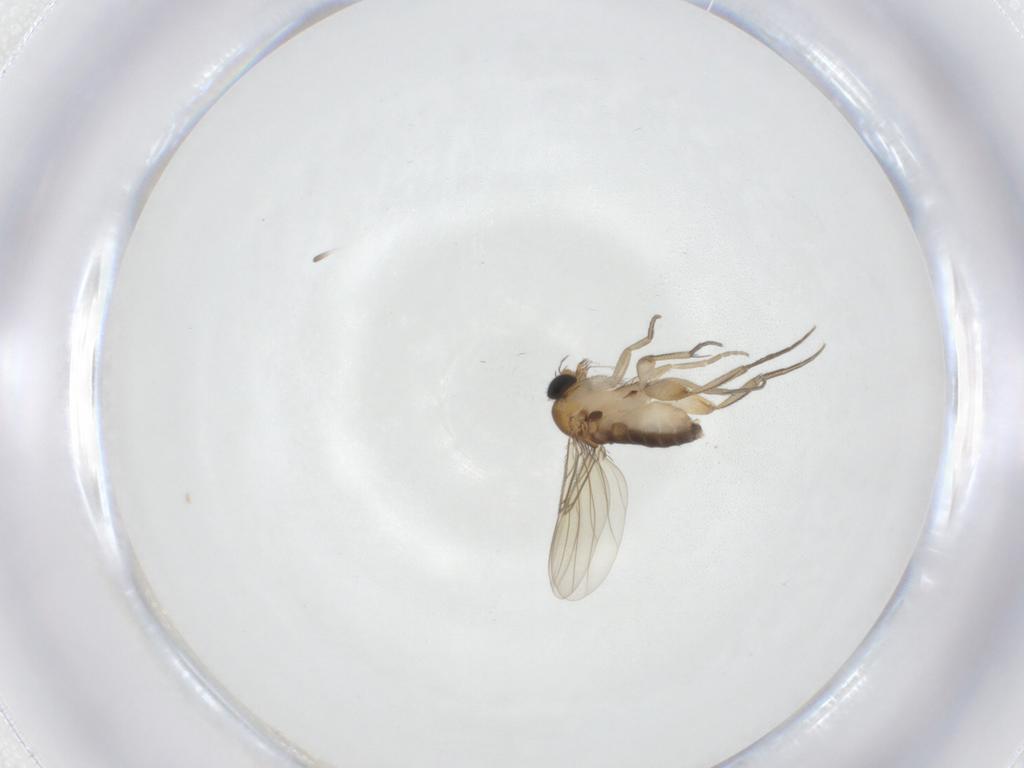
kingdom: Animalia
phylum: Arthropoda
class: Insecta
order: Diptera
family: Phoridae
